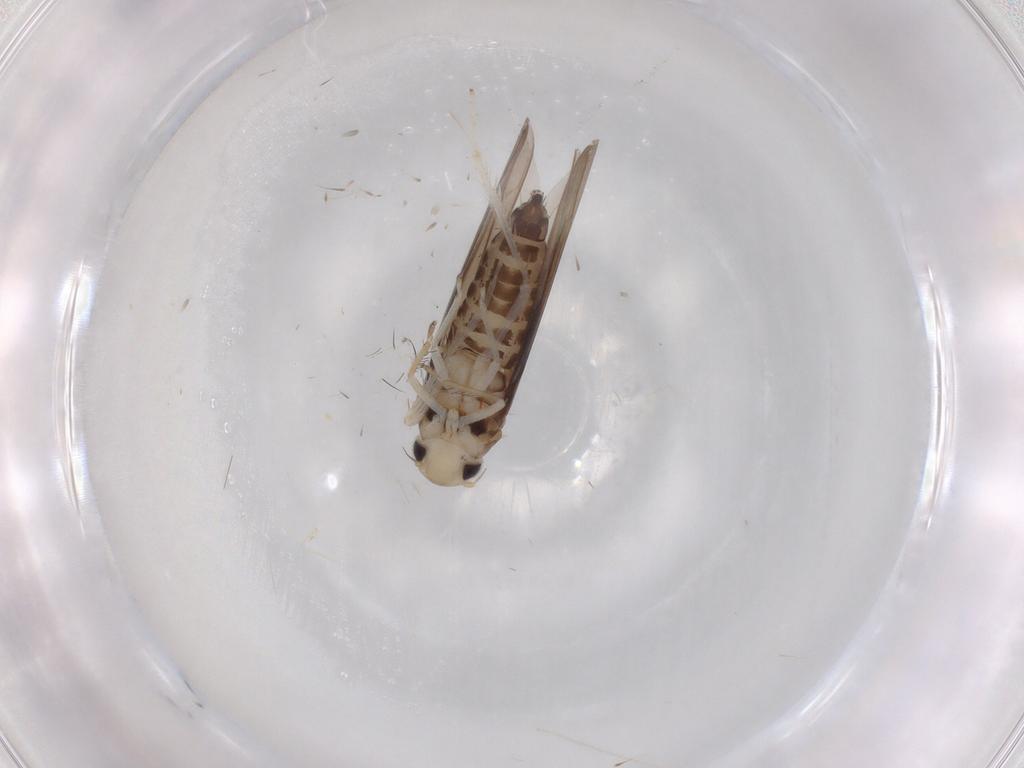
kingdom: Animalia
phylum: Arthropoda
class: Insecta
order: Hemiptera
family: Cicadellidae
